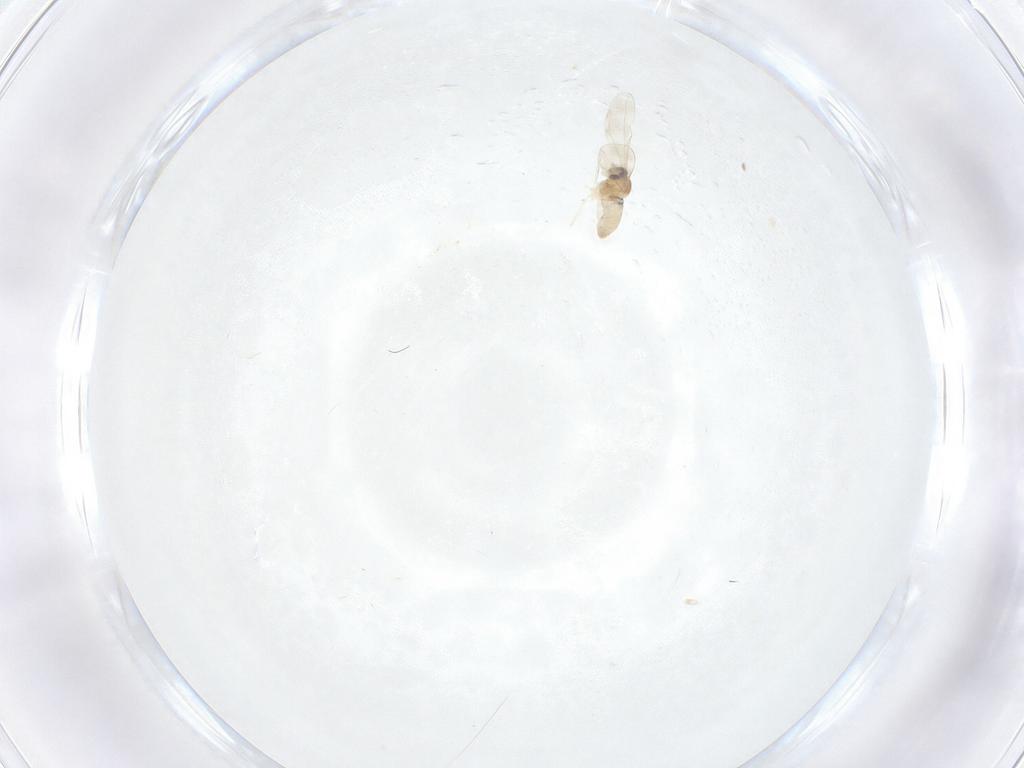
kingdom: Animalia
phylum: Arthropoda
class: Insecta
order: Diptera
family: Cecidomyiidae
